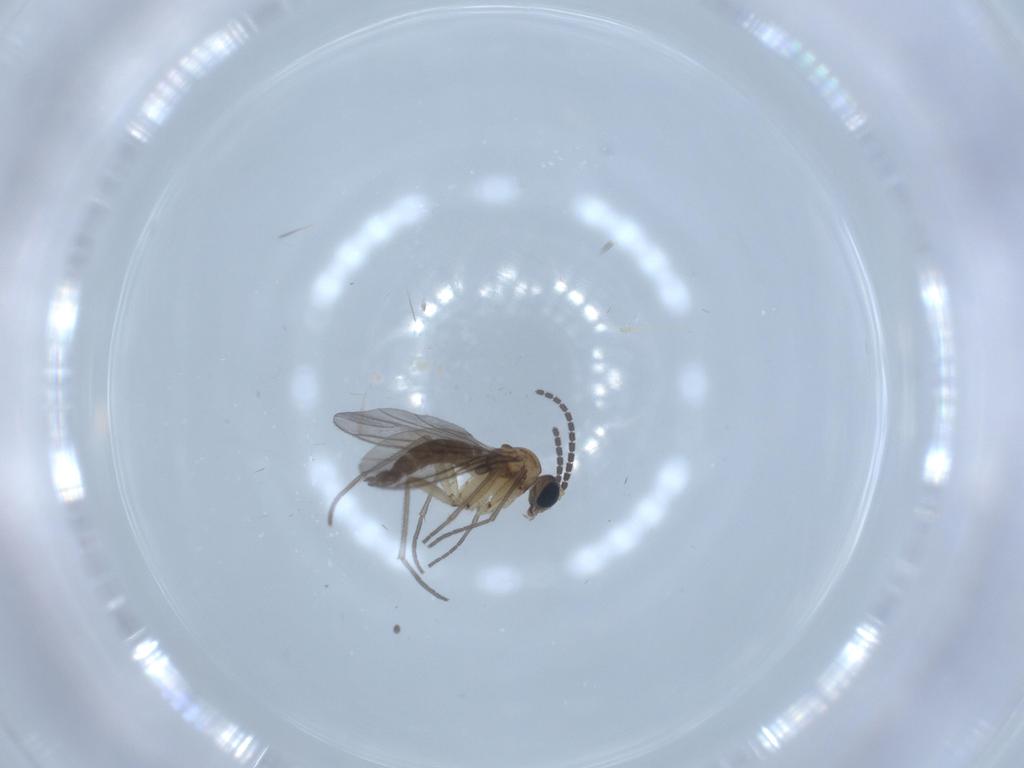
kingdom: Animalia
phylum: Arthropoda
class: Insecta
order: Diptera
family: Sciaridae
